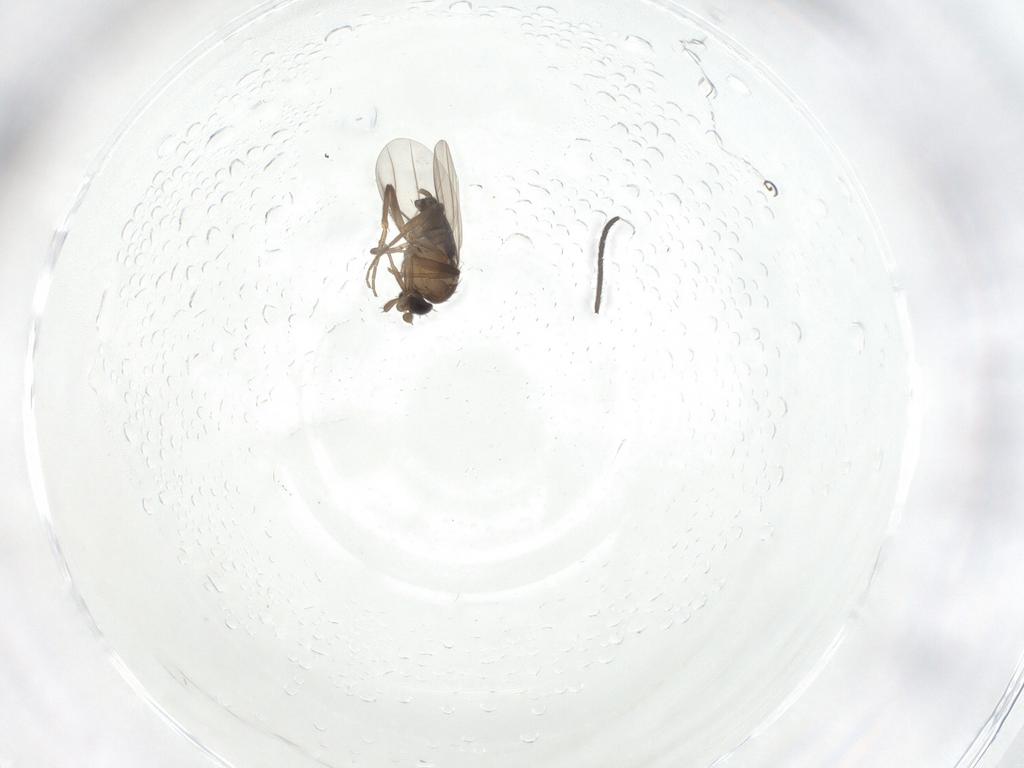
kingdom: Animalia
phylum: Arthropoda
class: Insecta
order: Diptera
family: Sciaridae
